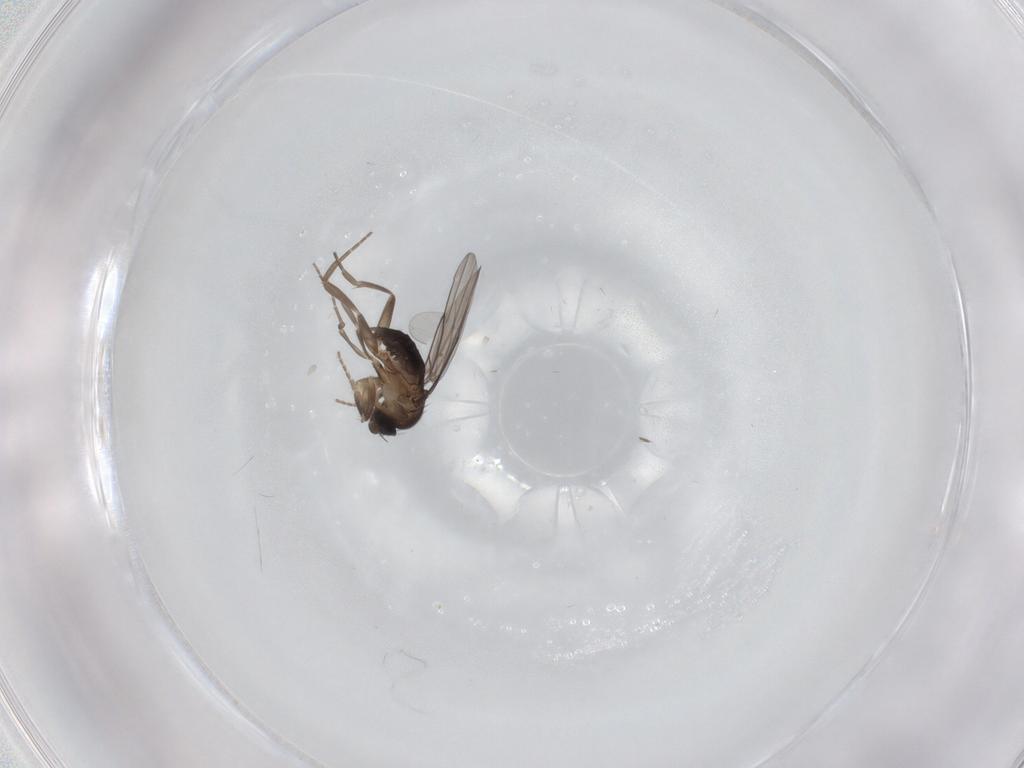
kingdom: Animalia
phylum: Arthropoda
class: Insecta
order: Diptera
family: Phoridae
